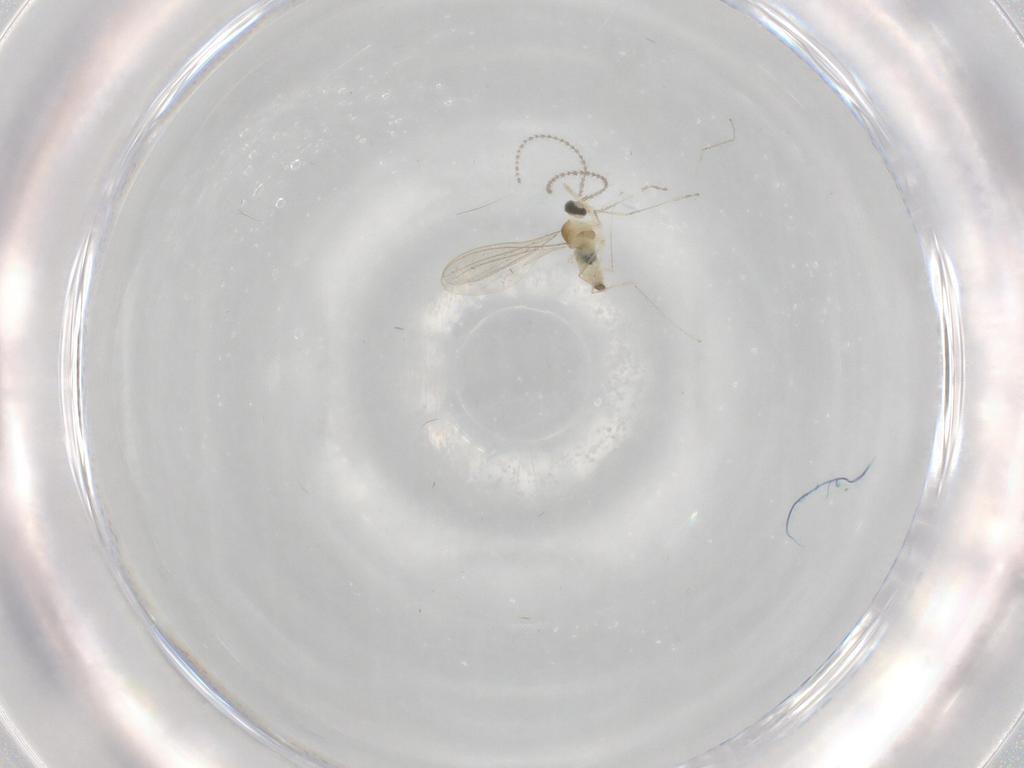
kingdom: Animalia
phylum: Arthropoda
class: Insecta
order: Diptera
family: Cecidomyiidae
